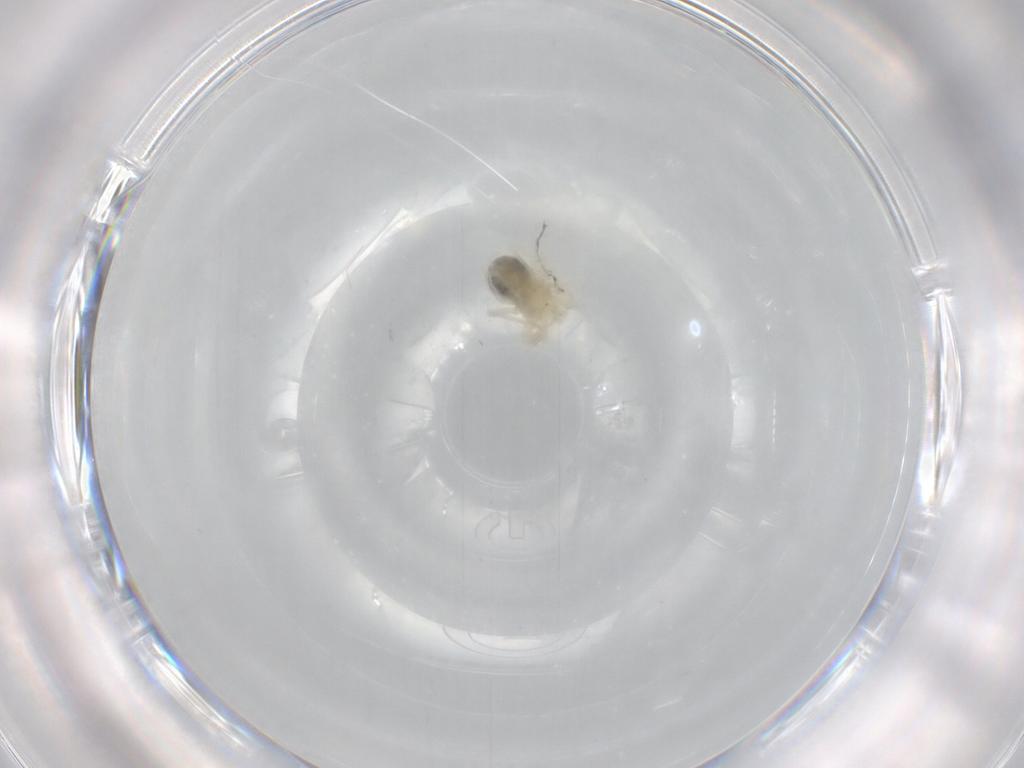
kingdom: Animalia
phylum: Arthropoda
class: Arachnida
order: Trombidiformes
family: Anystidae
